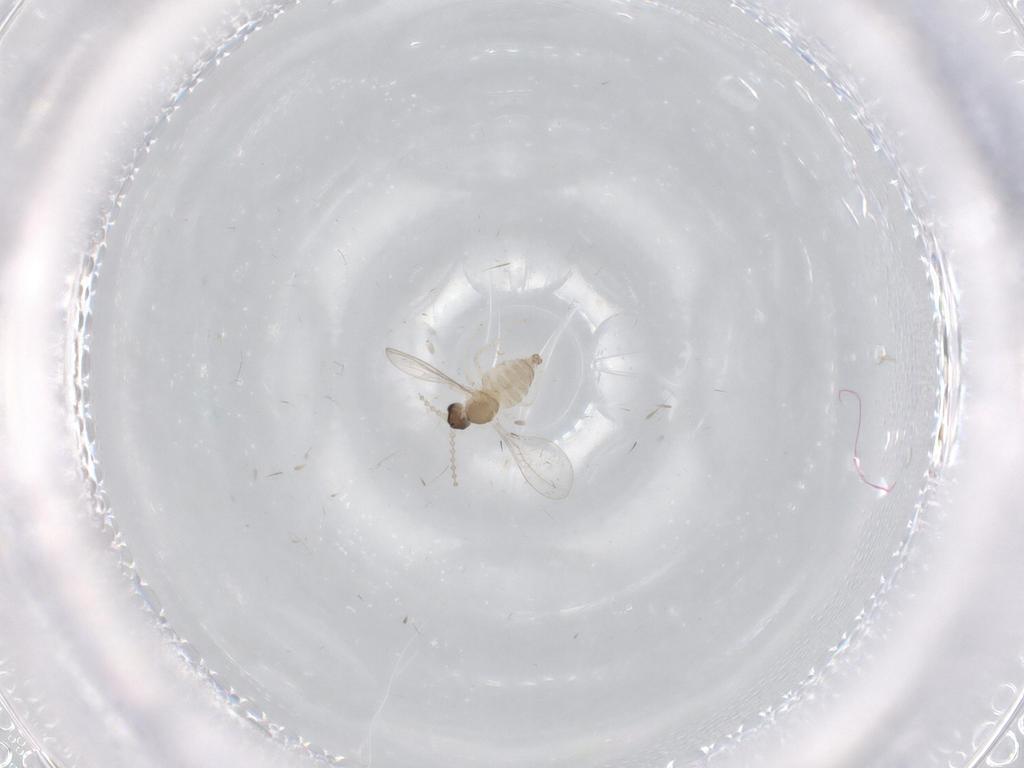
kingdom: Animalia
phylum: Arthropoda
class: Insecta
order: Diptera
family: Cecidomyiidae
